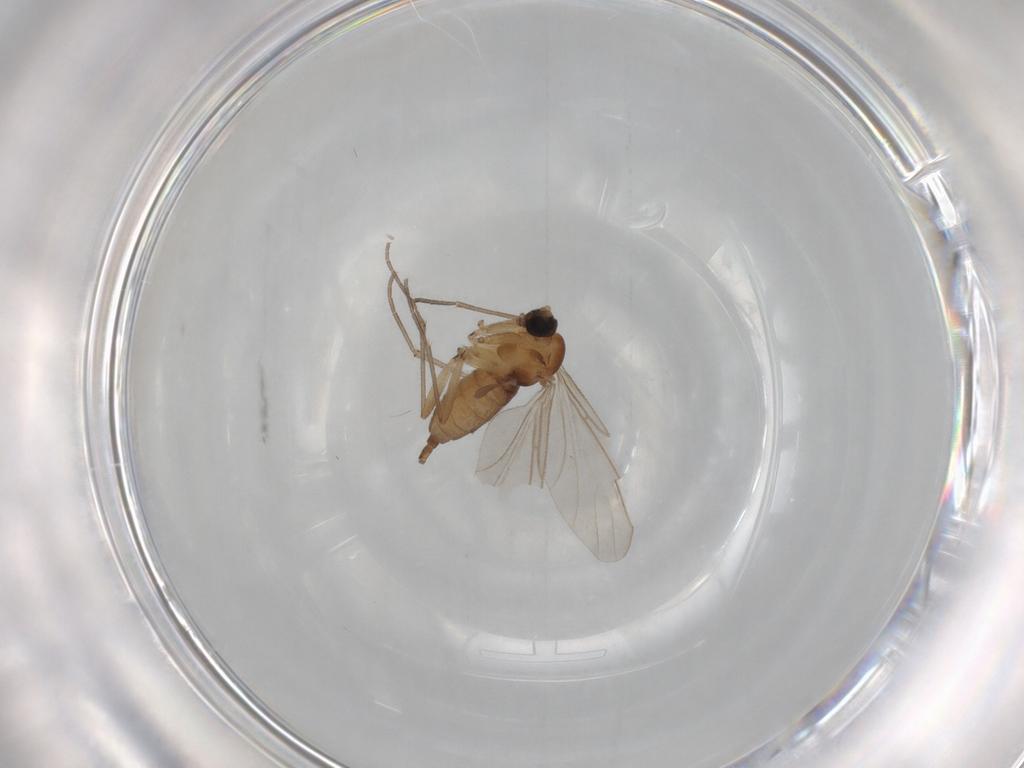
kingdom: Animalia
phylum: Arthropoda
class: Insecta
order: Diptera
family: Sciaridae
